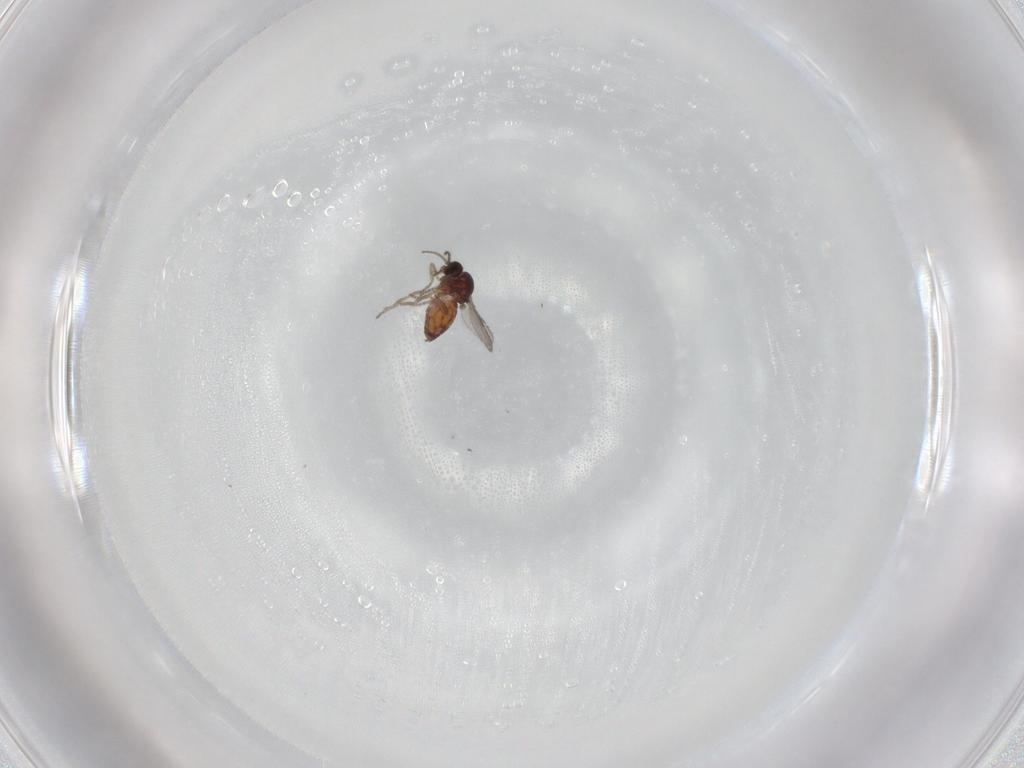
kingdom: Animalia
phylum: Arthropoda
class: Insecta
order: Diptera
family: Ceratopogonidae
